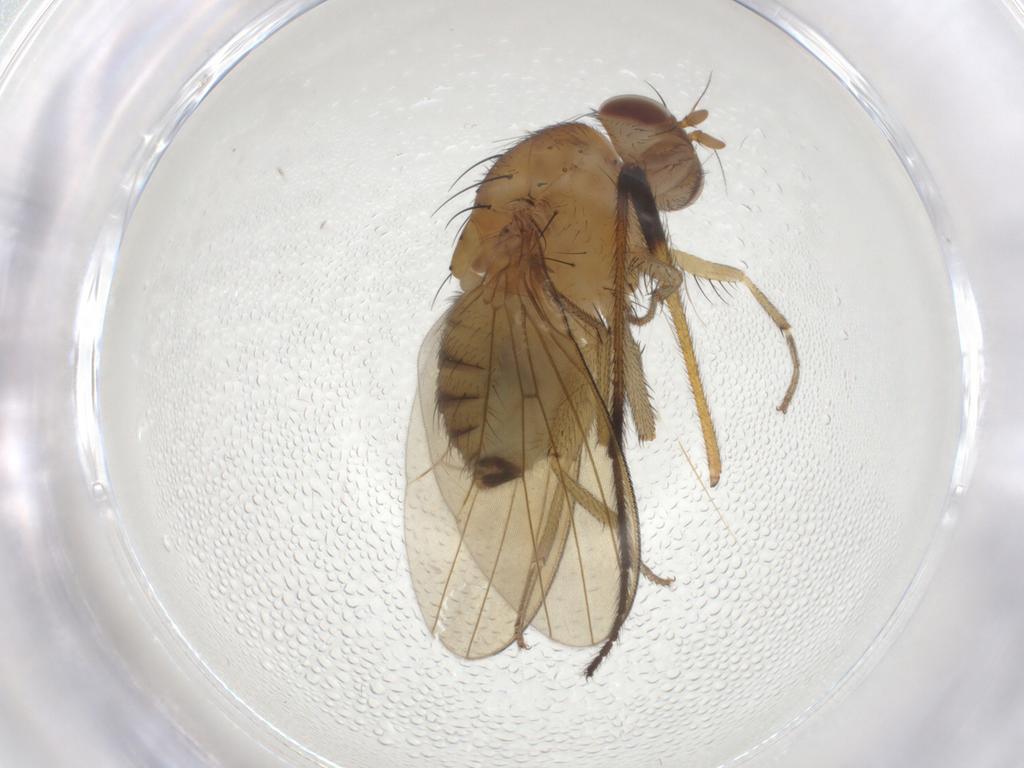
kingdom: Animalia
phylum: Arthropoda
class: Insecta
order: Diptera
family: Limoniidae
